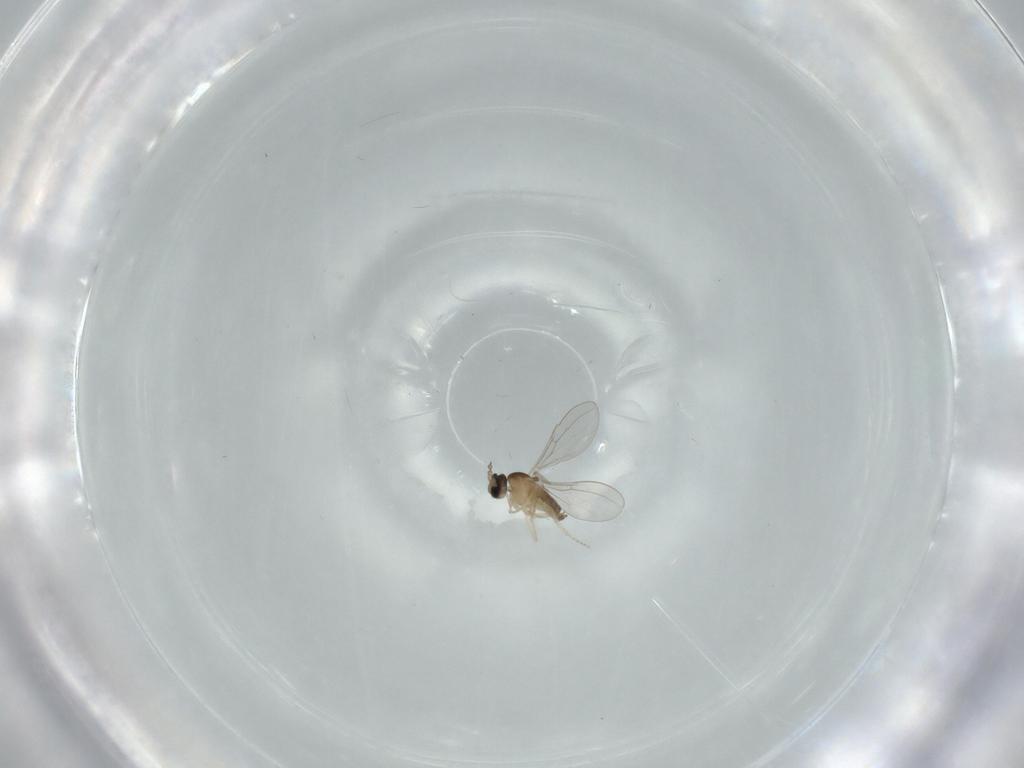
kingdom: Animalia
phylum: Arthropoda
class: Insecta
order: Diptera
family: Cecidomyiidae
